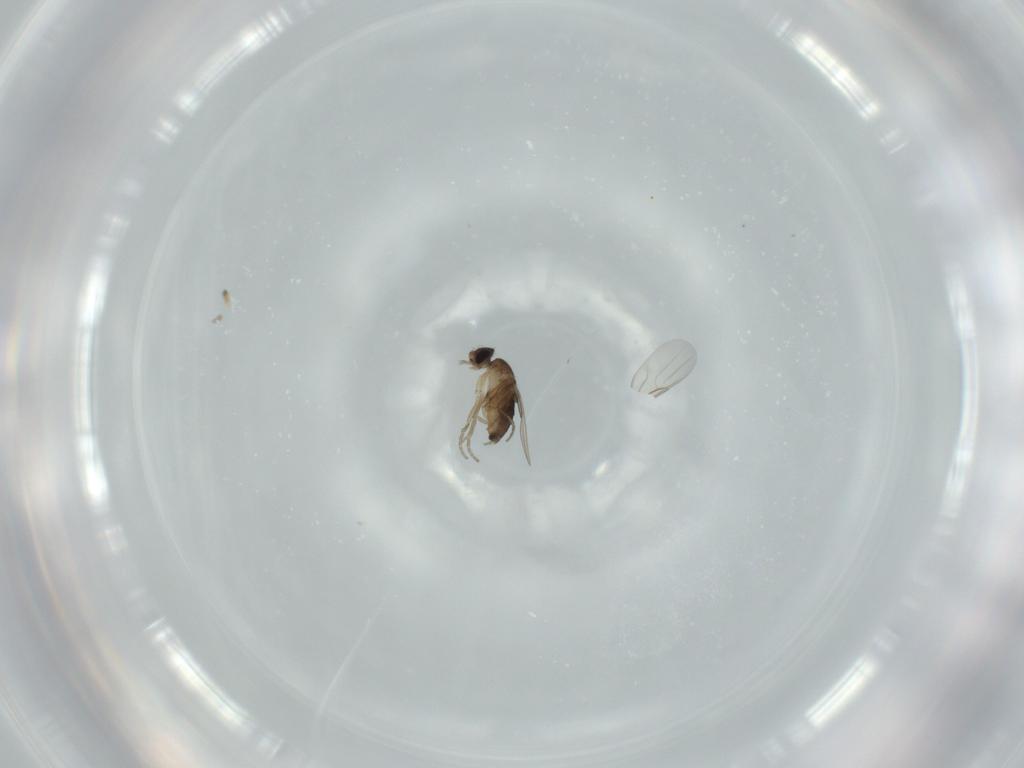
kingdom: Animalia
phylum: Arthropoda
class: Insecta
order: Diptera
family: Phoridae
